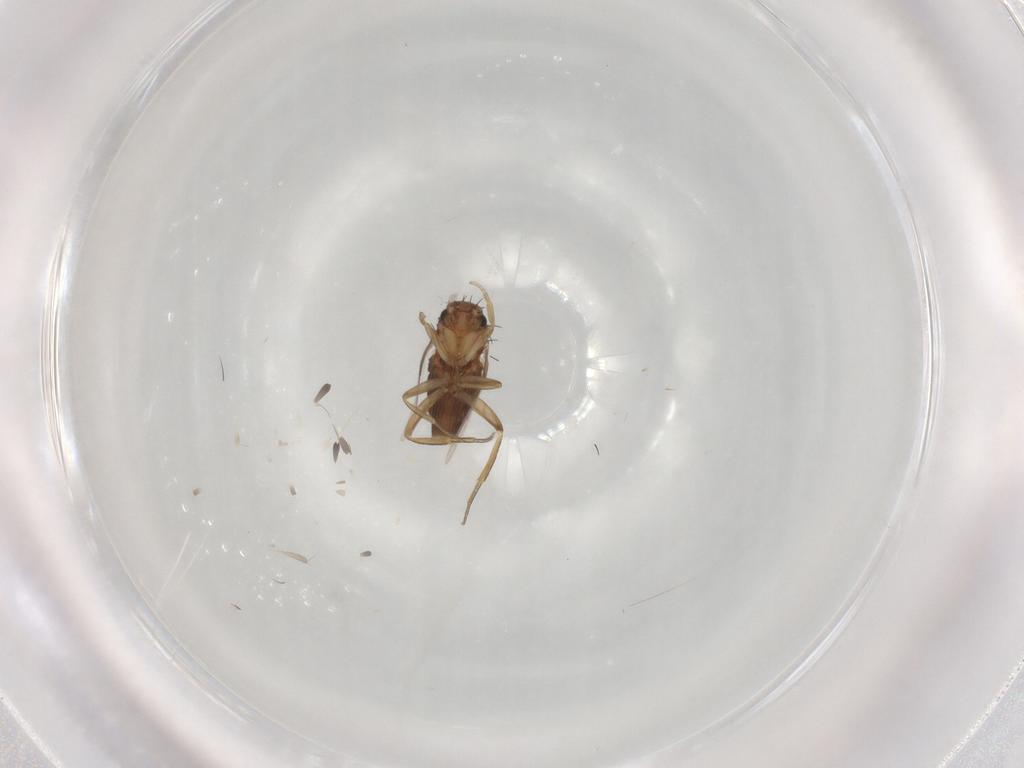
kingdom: Animalia
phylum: Arthropoda
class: Insecta
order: Diptera
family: Phoridae
